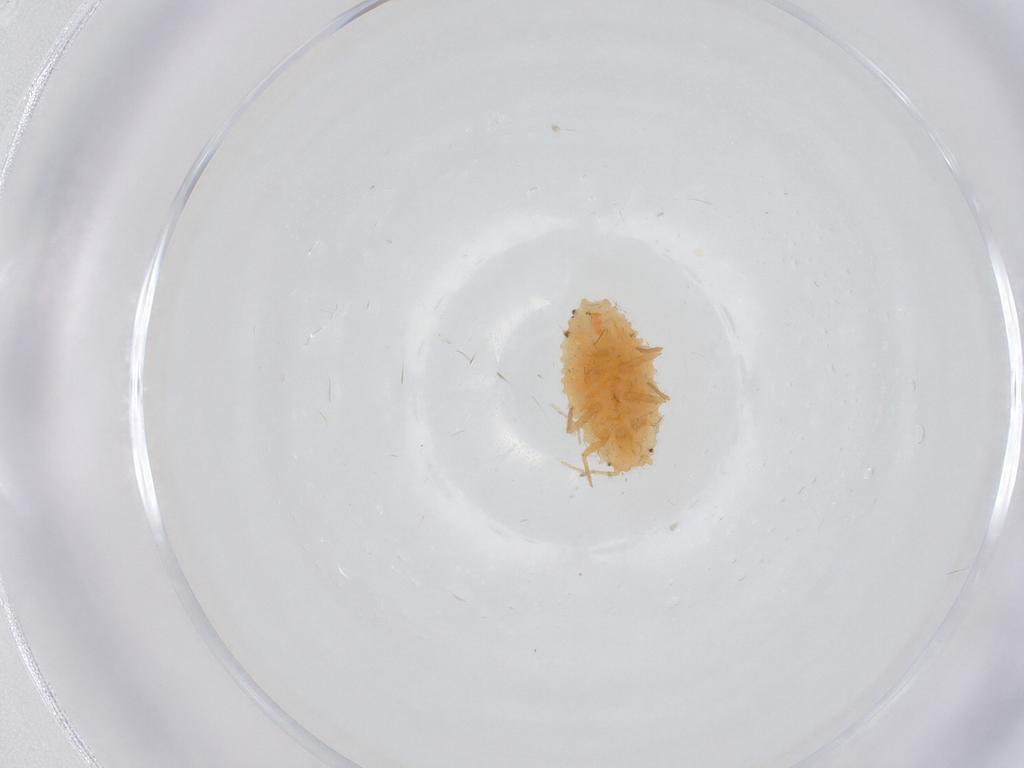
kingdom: Animalia
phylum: Arthropoda
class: Insecta
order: Diptera
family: Cecidomyiidae
